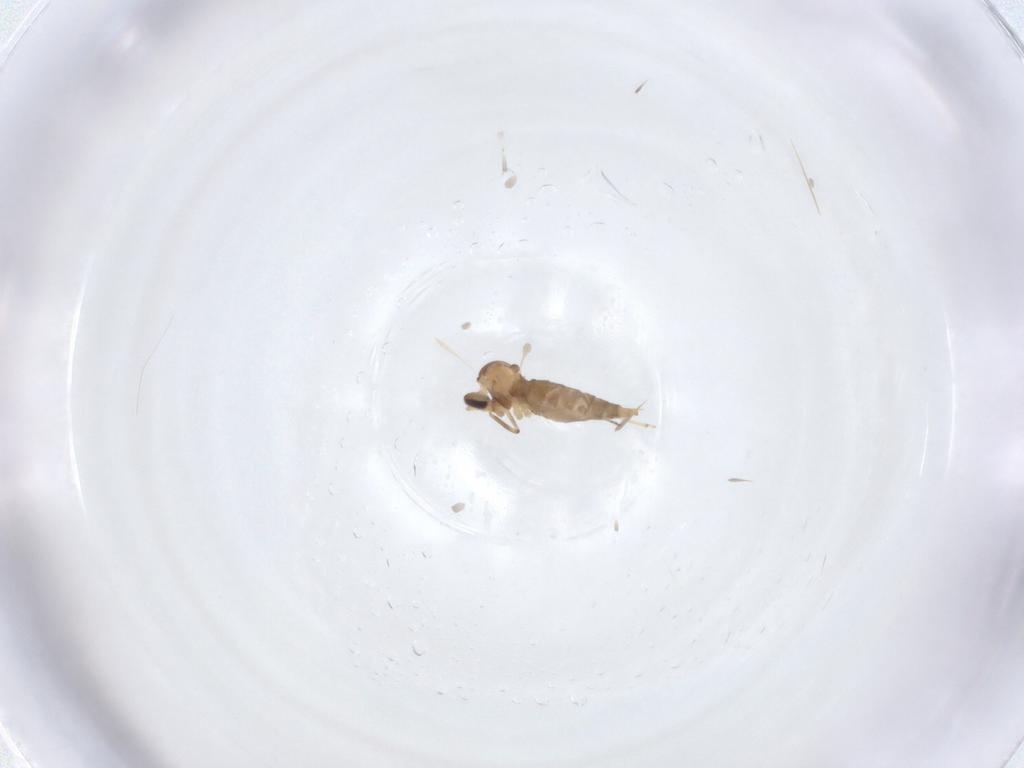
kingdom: Animalia
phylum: Arthropoda
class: Insecta
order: Diptera
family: Cecidomyiidae
